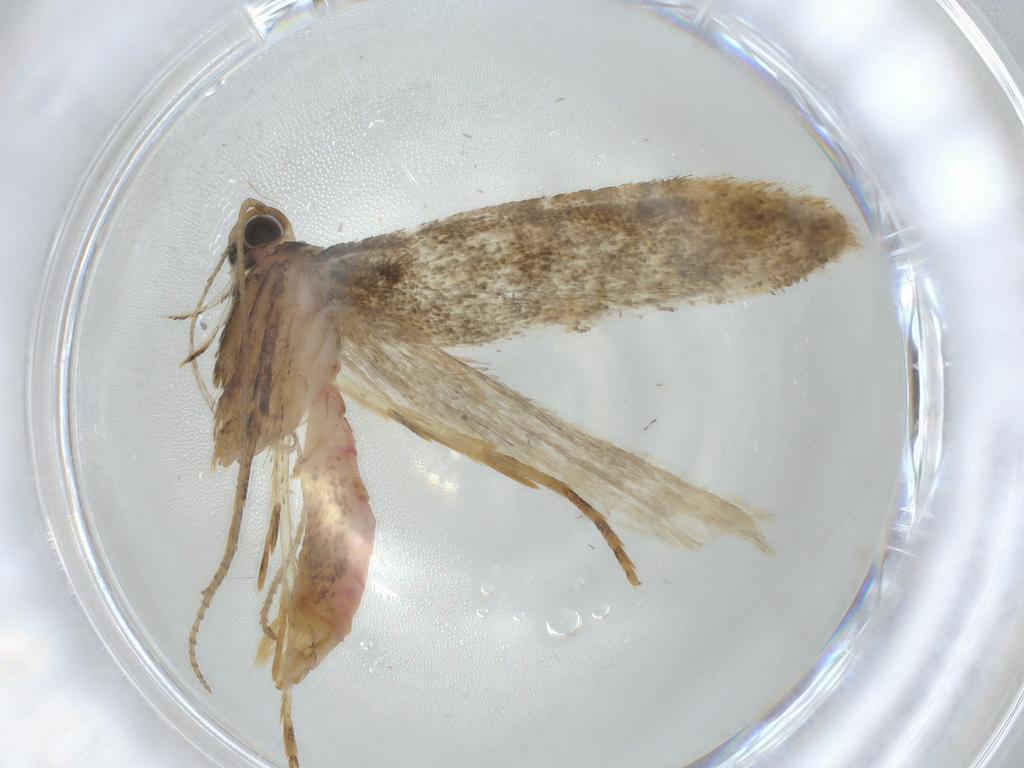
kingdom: Animalia
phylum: Arthropoda
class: Insecta
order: Lepidoptera
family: Crambidae
